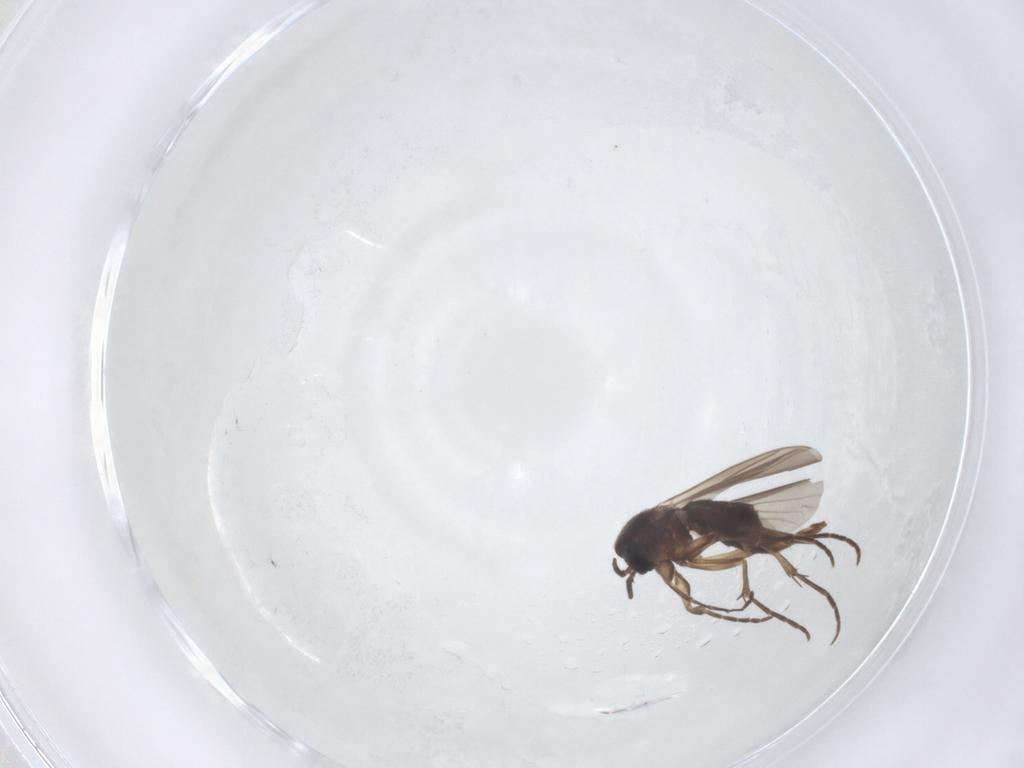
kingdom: Animalia
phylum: Arthropoda
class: Insecta
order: Diptera
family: Mycetophilidae
